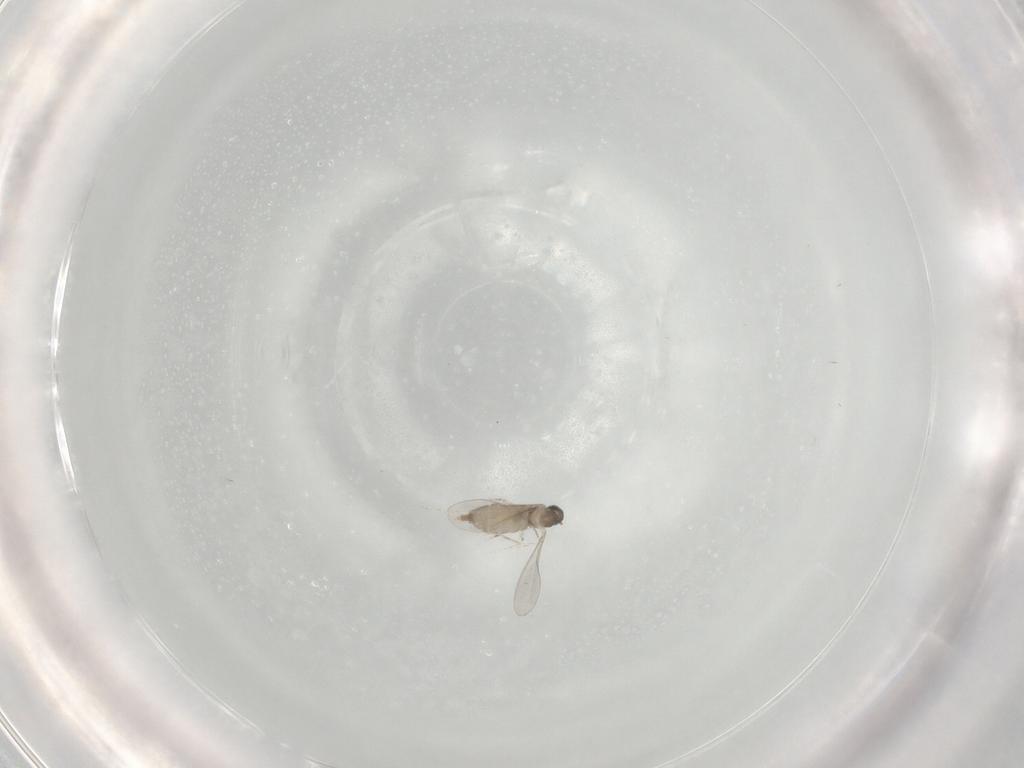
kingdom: Animalia
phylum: Arthropoda
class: Insecta
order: Diptera
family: Cecidomyiidae
